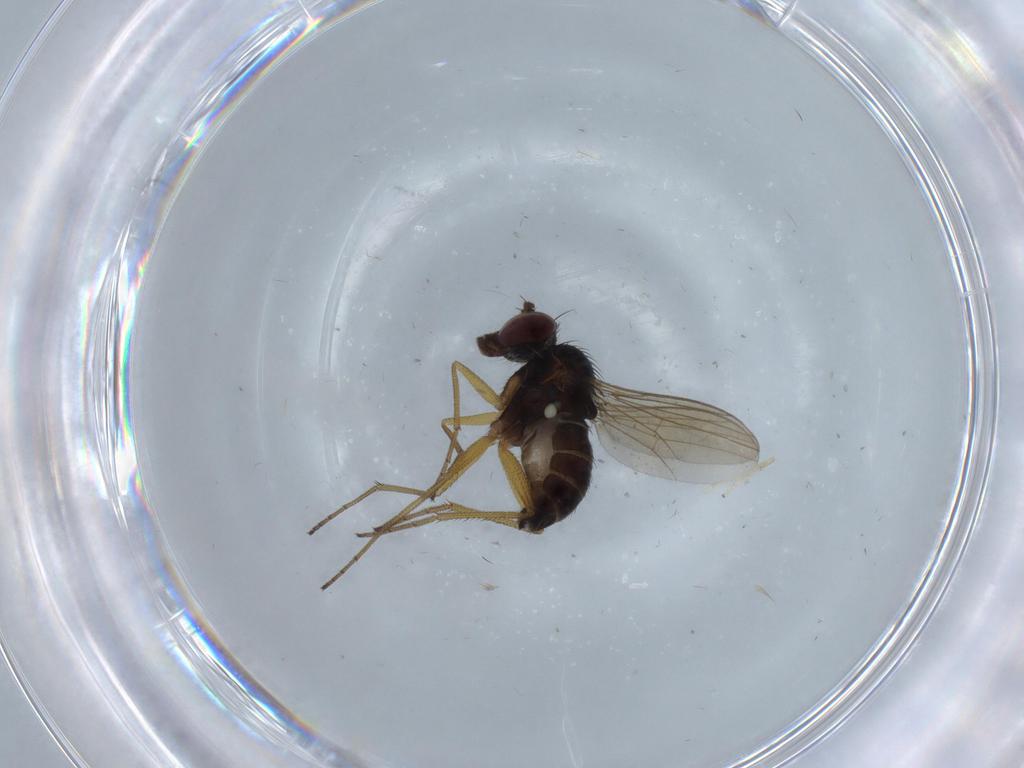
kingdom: Animalia
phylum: Arthropoda
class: Insecta
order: Diptera
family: Dolichopodidae
